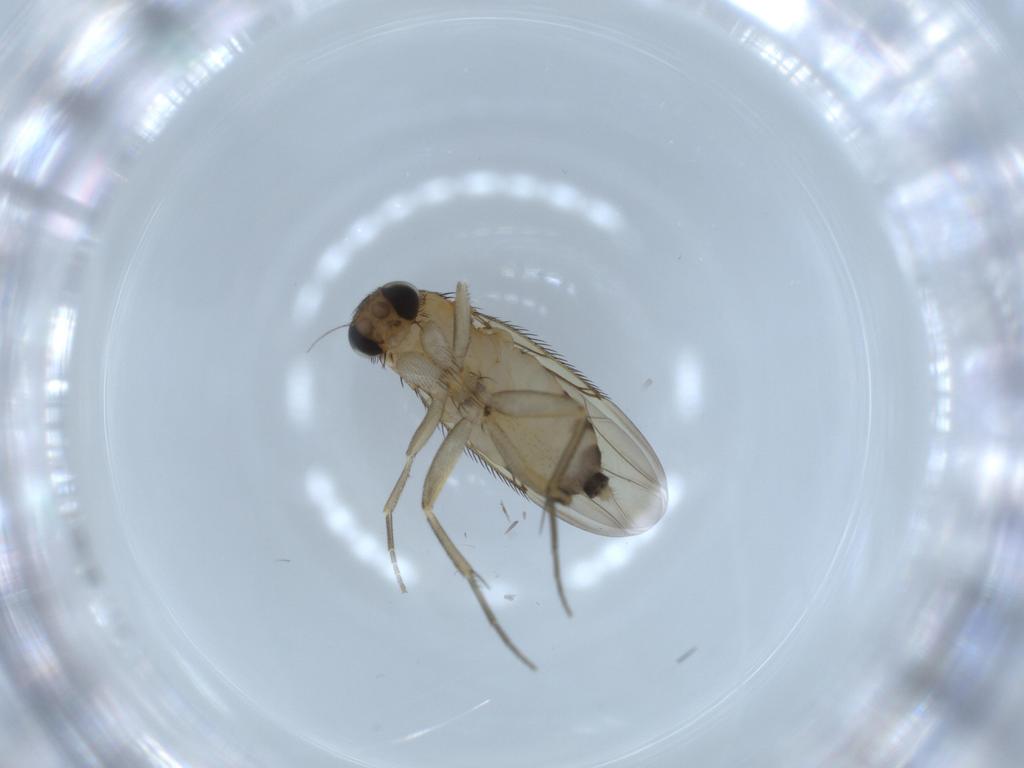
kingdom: Animalia
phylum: Arthropoda
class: Insecta
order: Diptera
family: Phoridae
